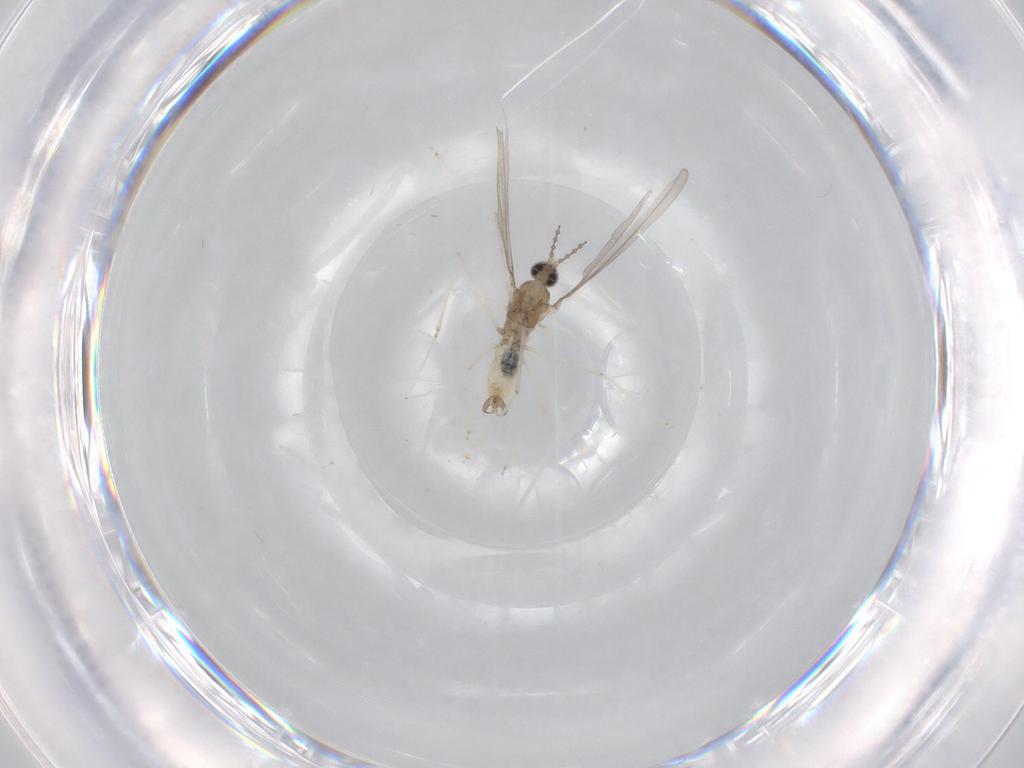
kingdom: Animalia
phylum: Arthropoda
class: Insecta
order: Diptera
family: Cecidomyiidae
